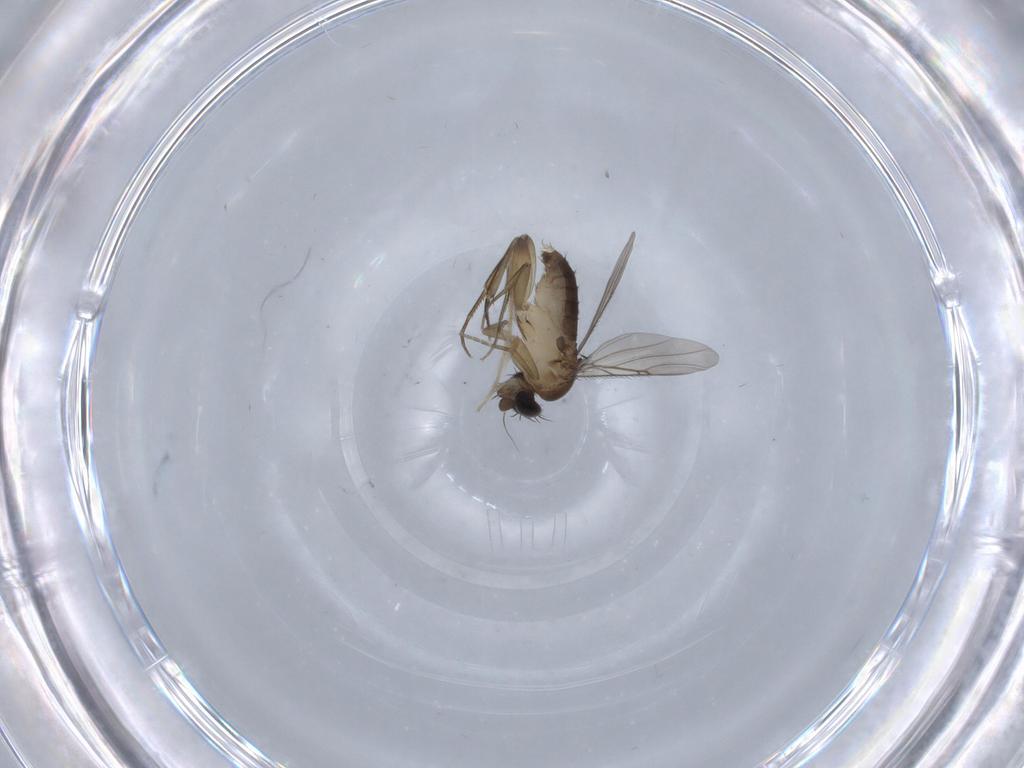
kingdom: Animalia
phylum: Arthropoda
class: Insecta
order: Diptera
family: Phoridae
